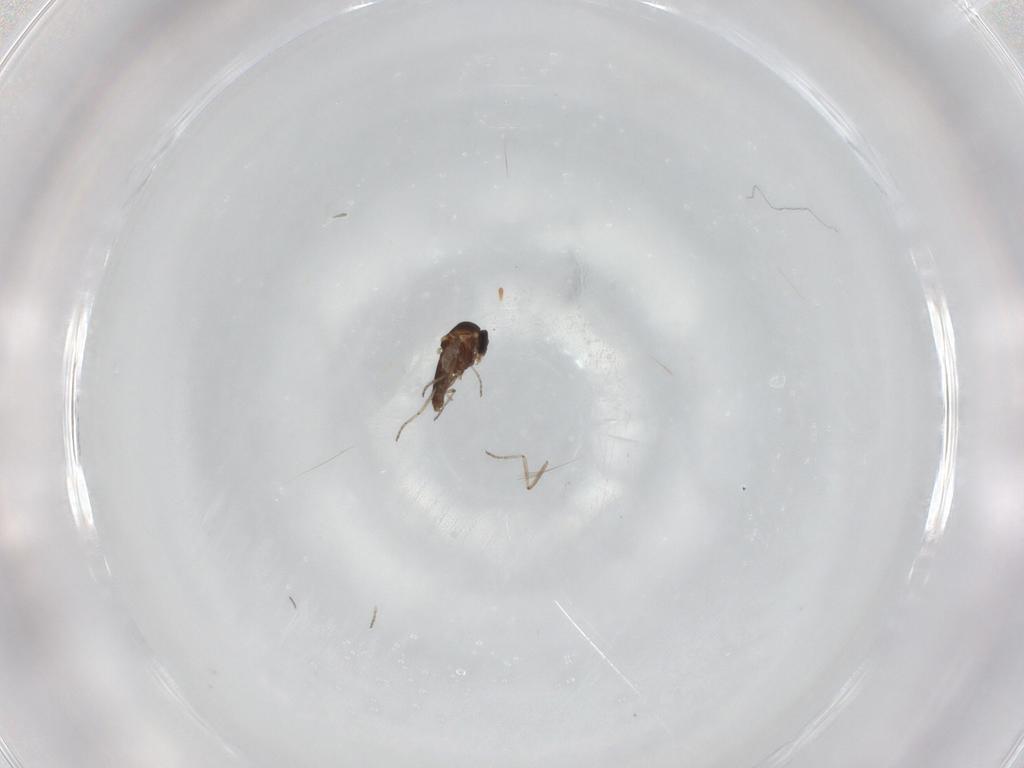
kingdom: Animalia
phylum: Arthropoda
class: Insecta
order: Diptera
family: Ceratopogonidae
